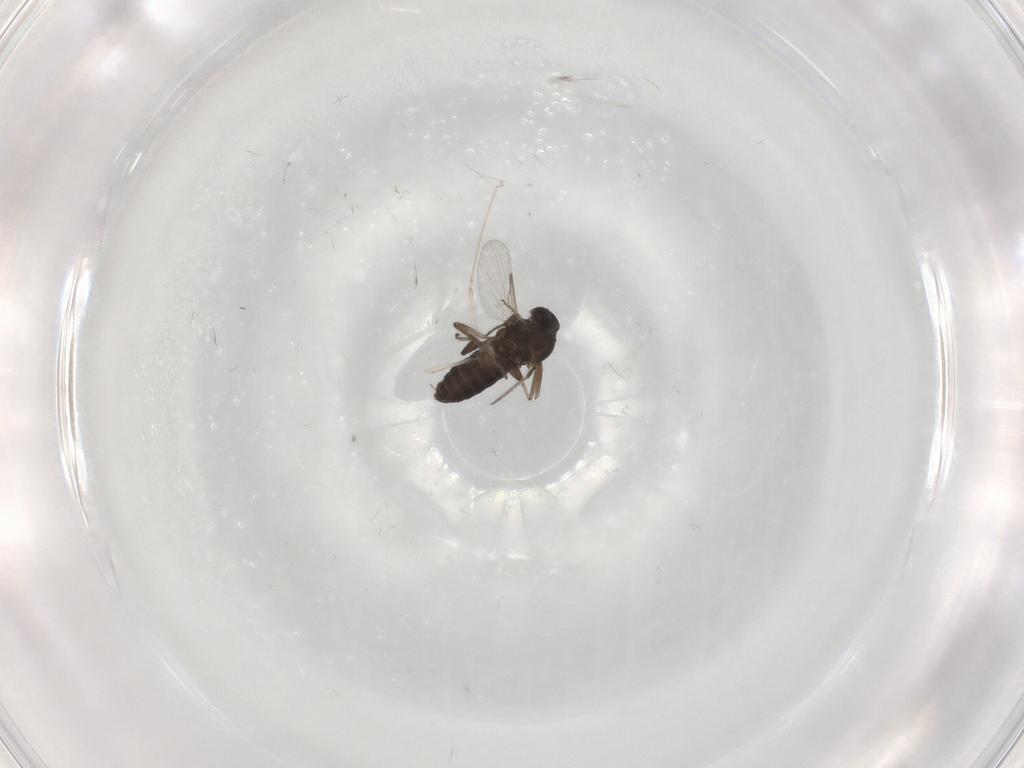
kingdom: Animalia
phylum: Arthropoda
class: Insecta
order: Diptera
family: Ceratopogonidae
